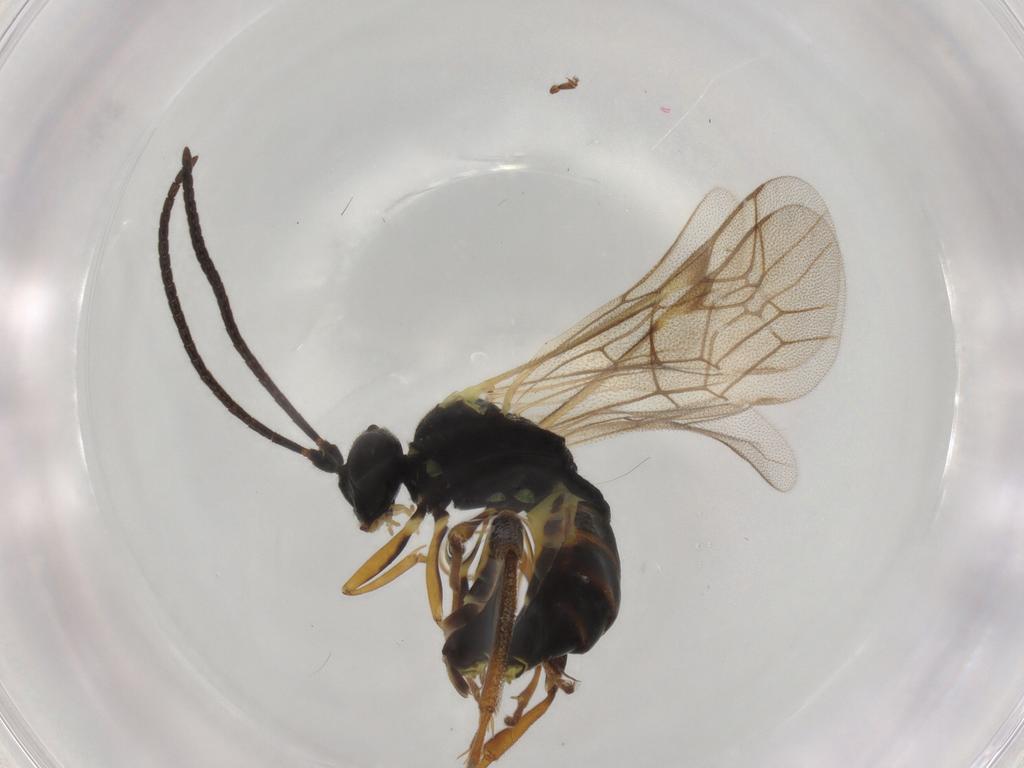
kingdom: Animalia
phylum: Arthropoda
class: Insecta
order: Hymenoptera
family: Ichneumonidae
